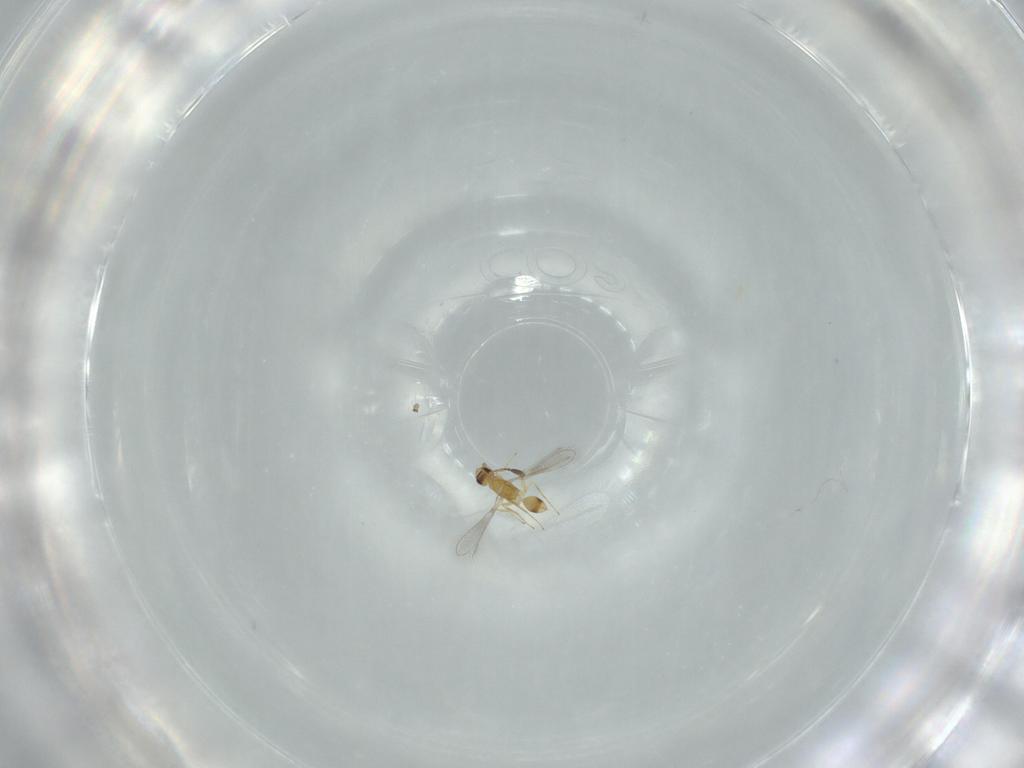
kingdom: Animalia
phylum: Arthropoda
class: Insecta
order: Hymenoptera
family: Mymaridae
